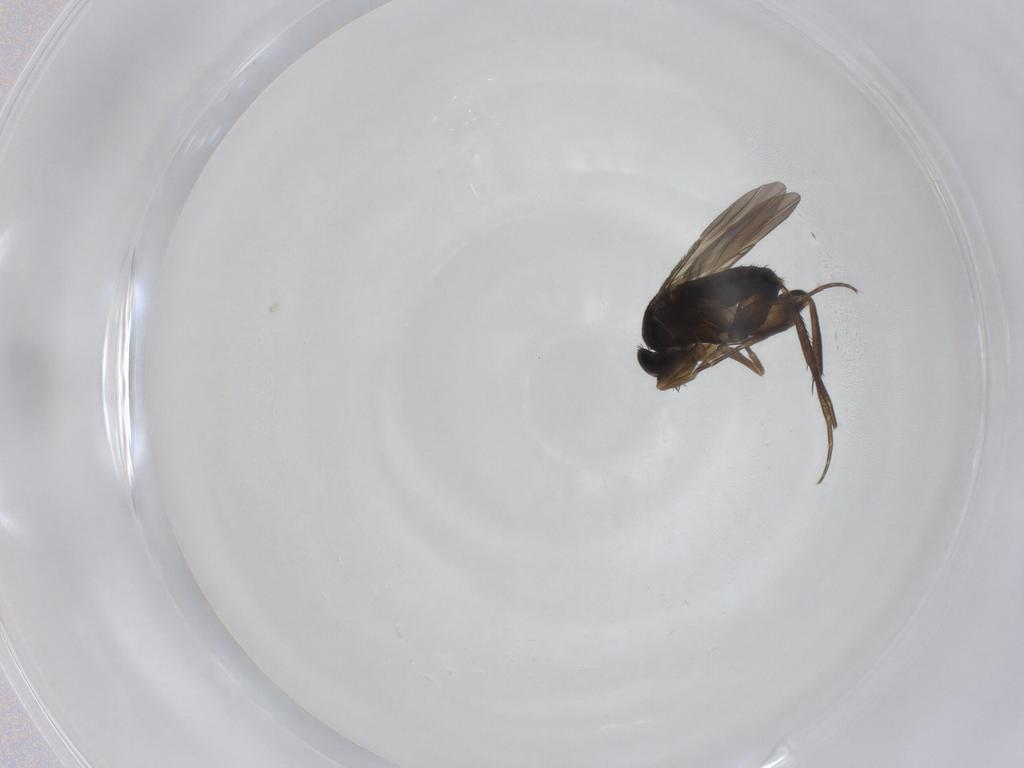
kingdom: Animalia
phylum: Arthropoda
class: Insecta
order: Diptera
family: Phoridae
